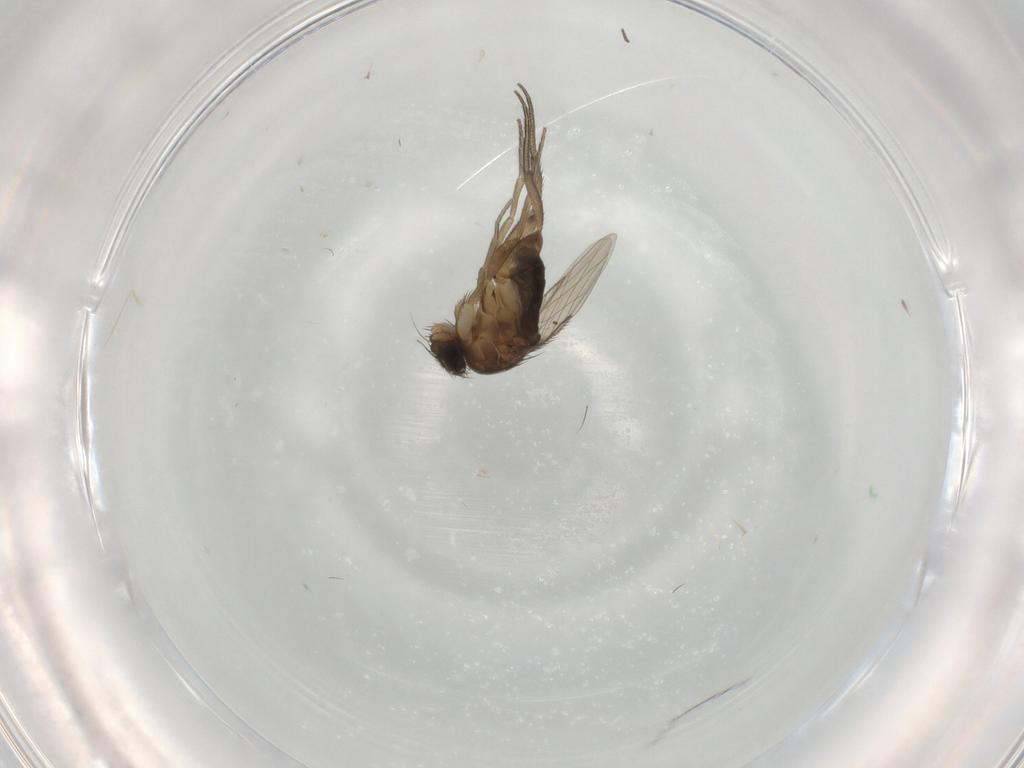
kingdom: Animalia
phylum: Arthropoda
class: Insecta
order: Diptera
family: Phoridae
